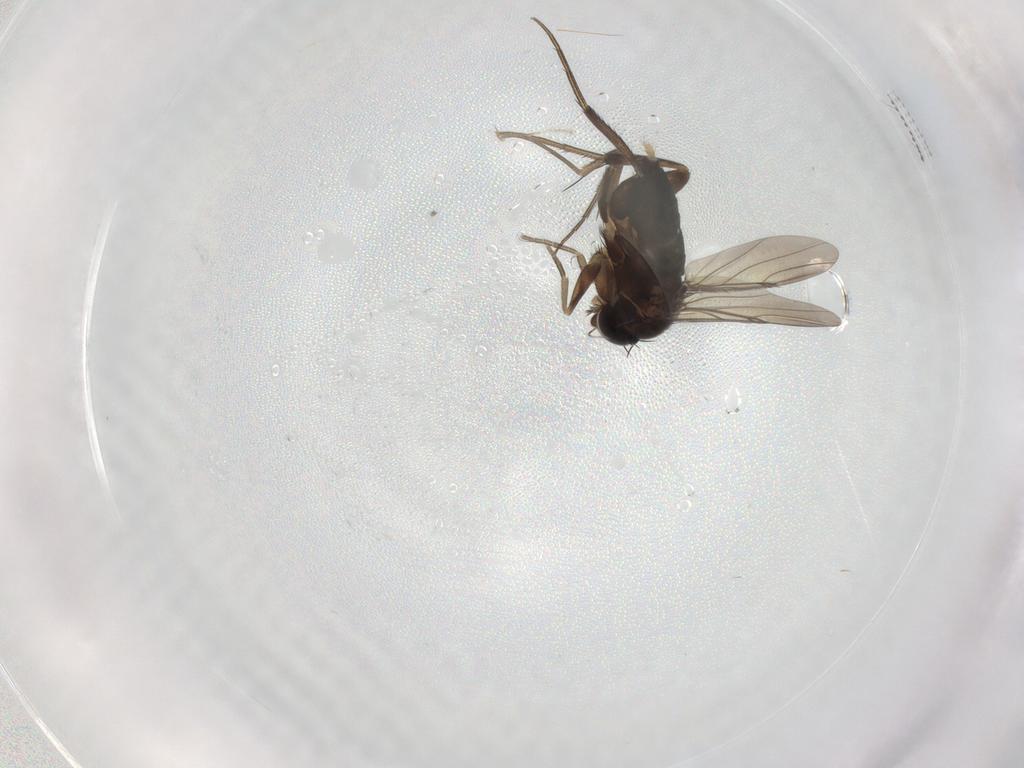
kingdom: Animalia
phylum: Arthropoda
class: Insecta
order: Diptera
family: Phoridae
